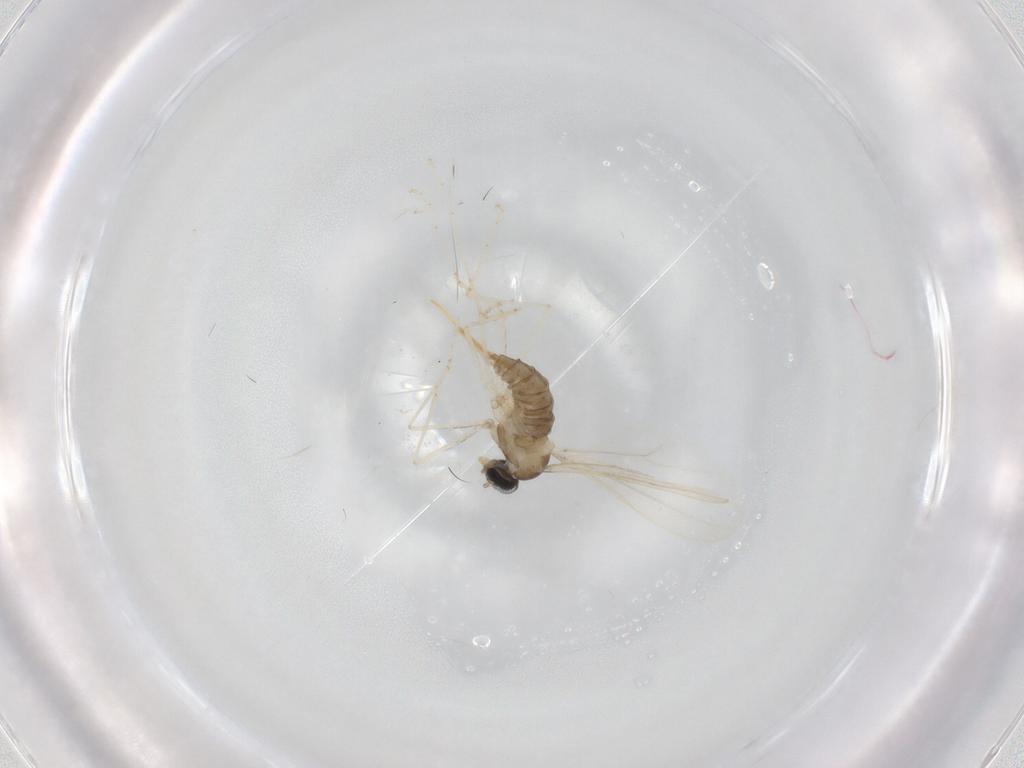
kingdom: Animalia
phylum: Arthropoda
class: Insecta
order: Diptera
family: Cecidomyiidae
